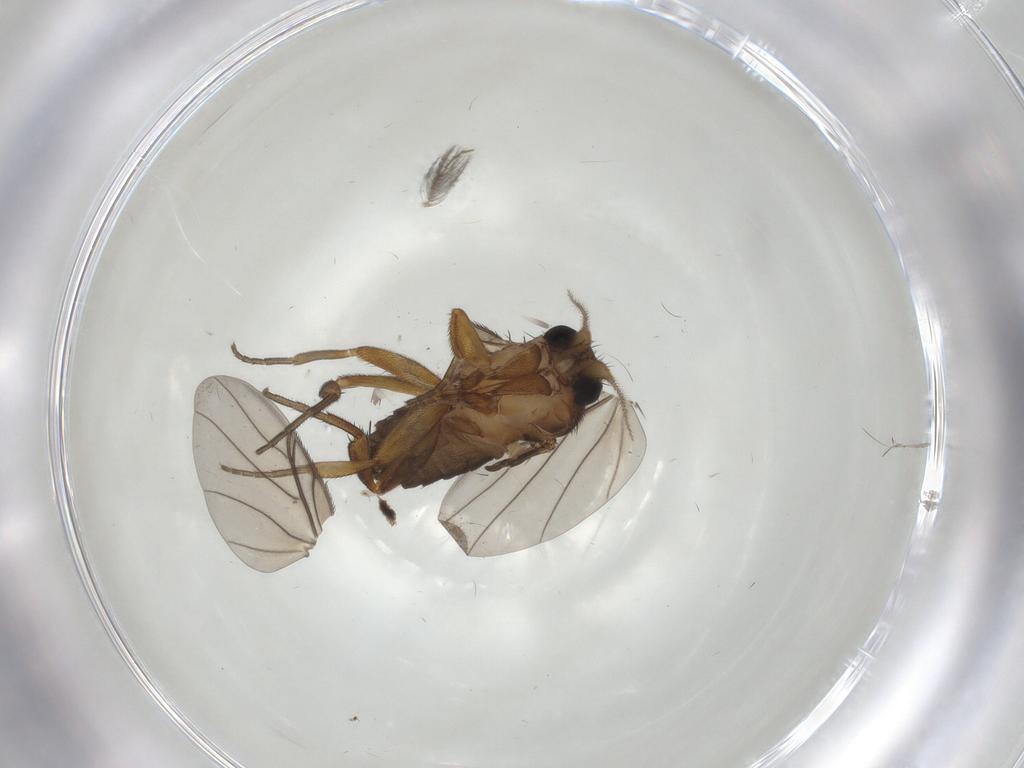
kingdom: Animalia
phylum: Arthropoda
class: Insecta
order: Diptera
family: Phoridae
